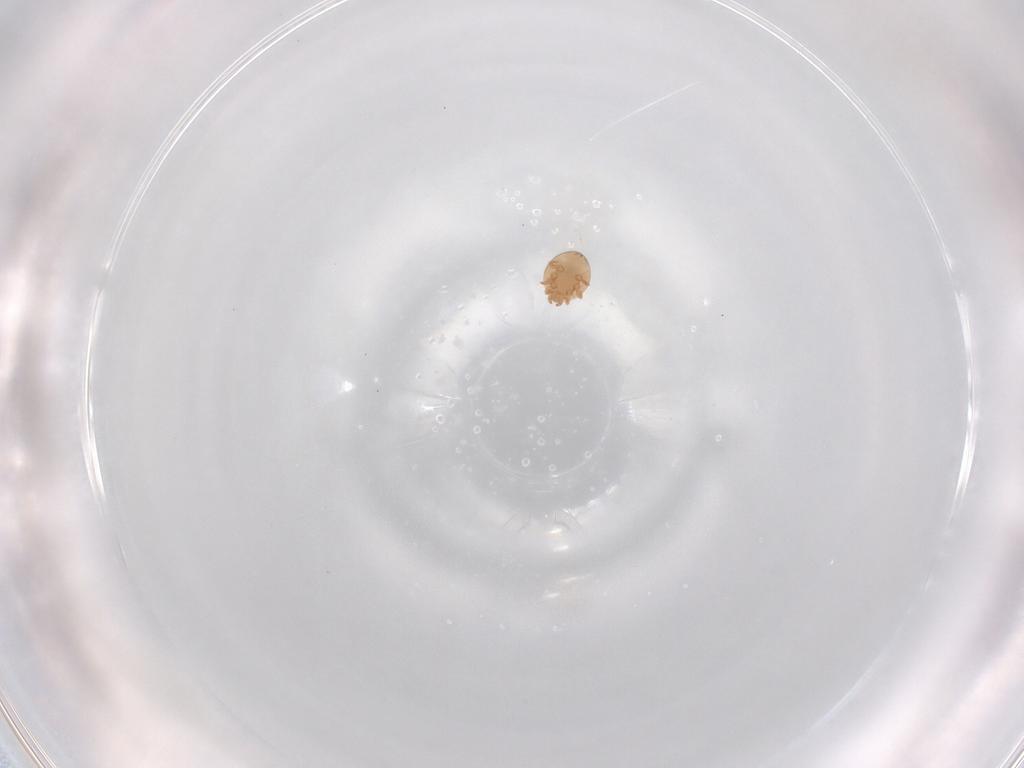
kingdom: Animalia
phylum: Arthropoda
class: Arachnida
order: Mesostigmata
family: Trematuridae
